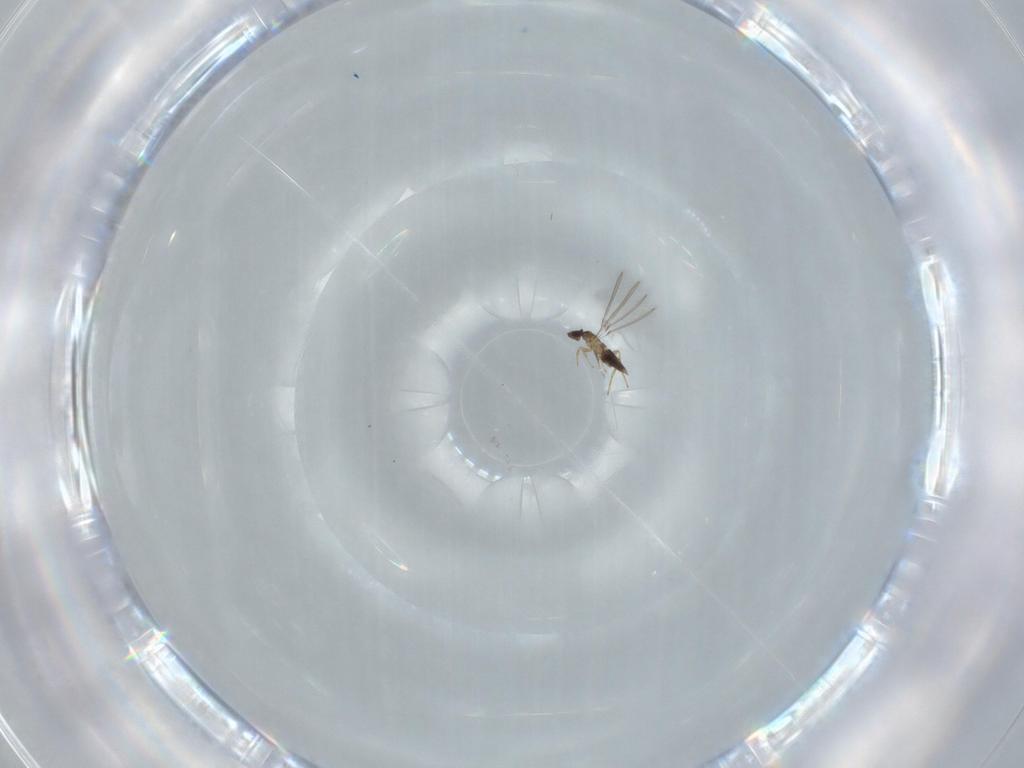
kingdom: Animalia
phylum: Arthropoda
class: Insecta
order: Hymenoptera
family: Mymaridae
